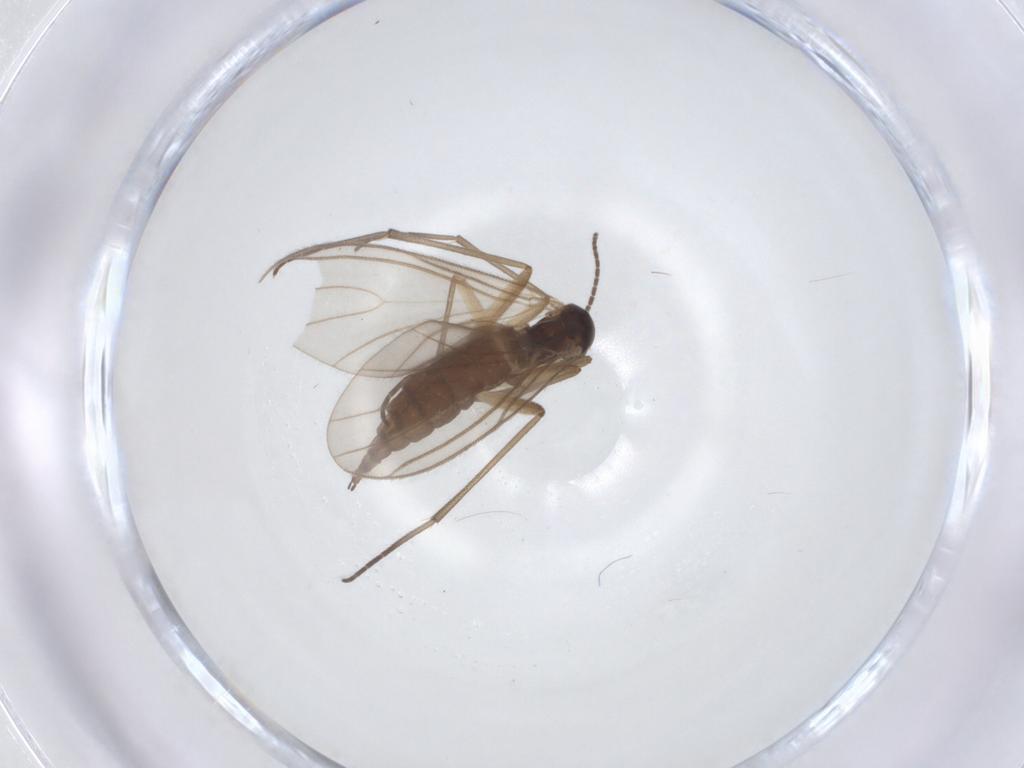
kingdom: Animalia
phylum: Arthropoda
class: Insecta
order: Diptera
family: Sciaridae
